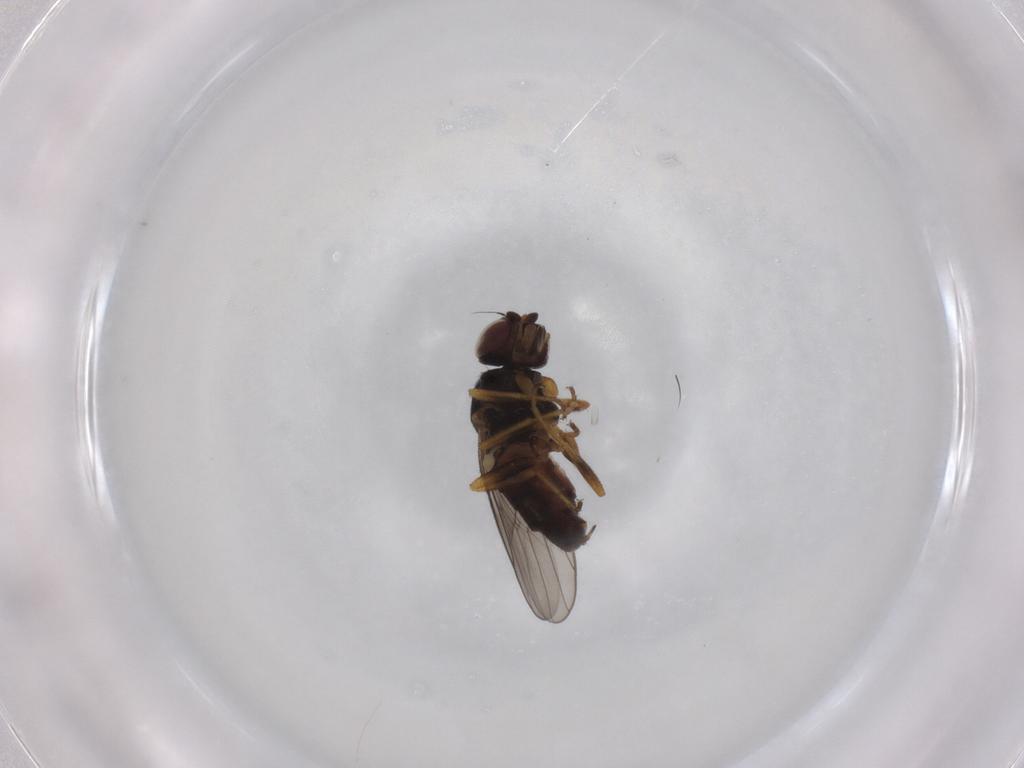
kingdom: Animalia
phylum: Arthropoda
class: Insecta
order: Diptera
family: Chloropidae
